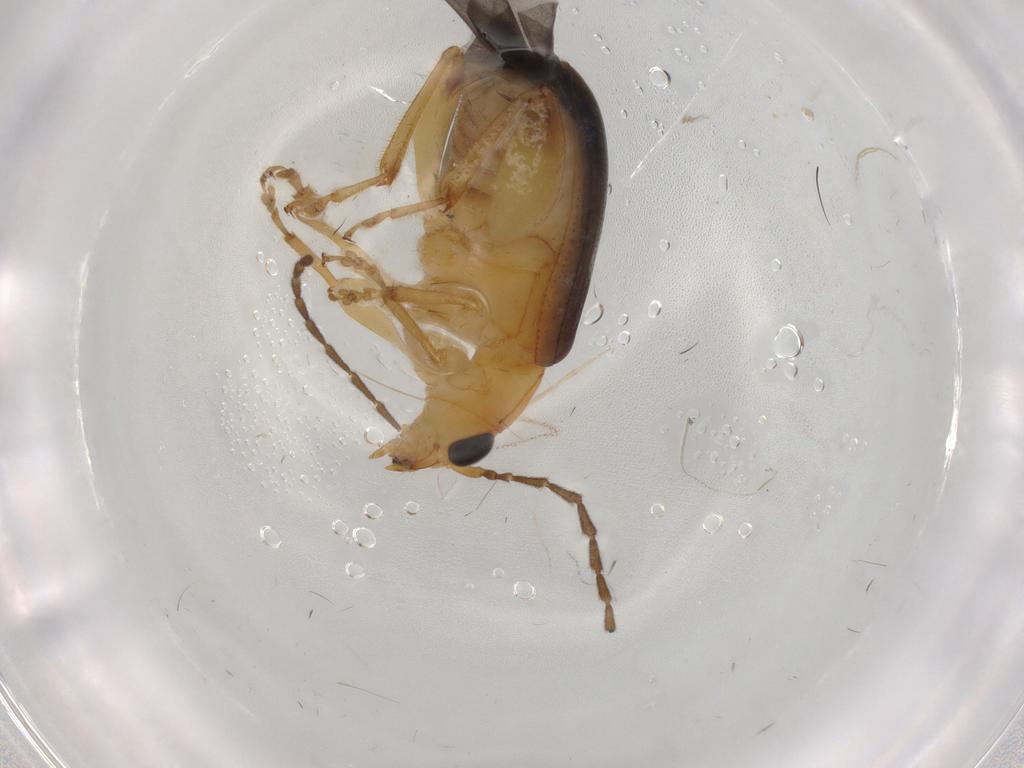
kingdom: Animalia
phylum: Arthropoda
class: Insecta
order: Coleoptera
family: Chrysomelidae
